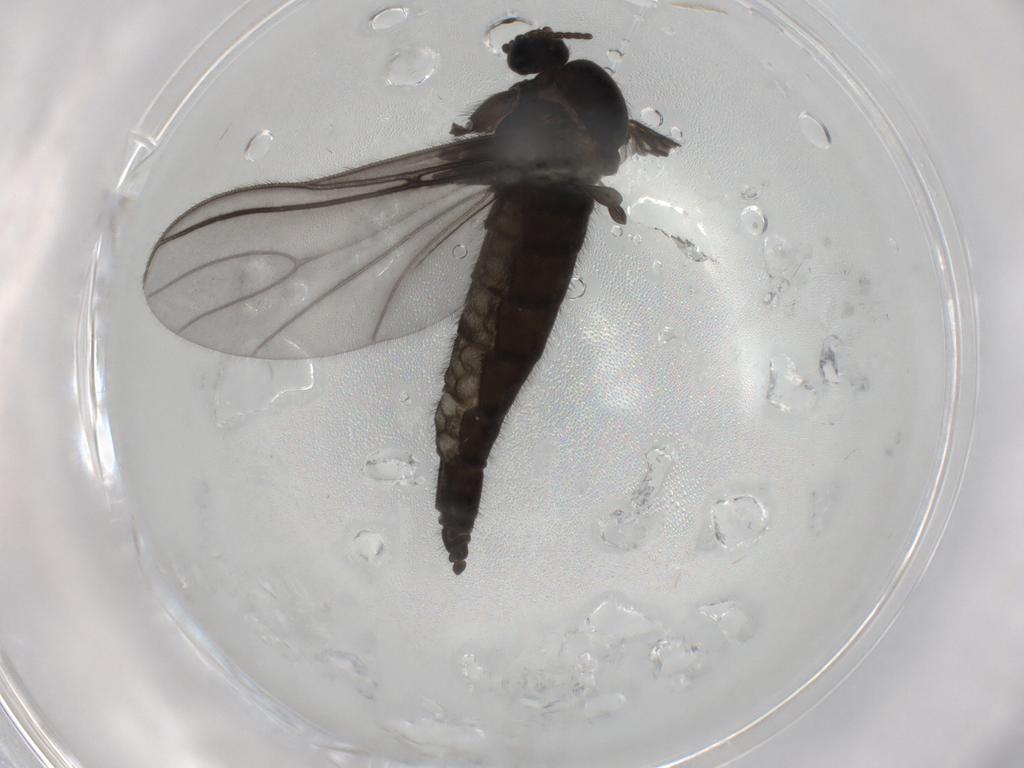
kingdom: Animalia
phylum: Arthropoda
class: Insecta
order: Diptera
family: Sciaridae
